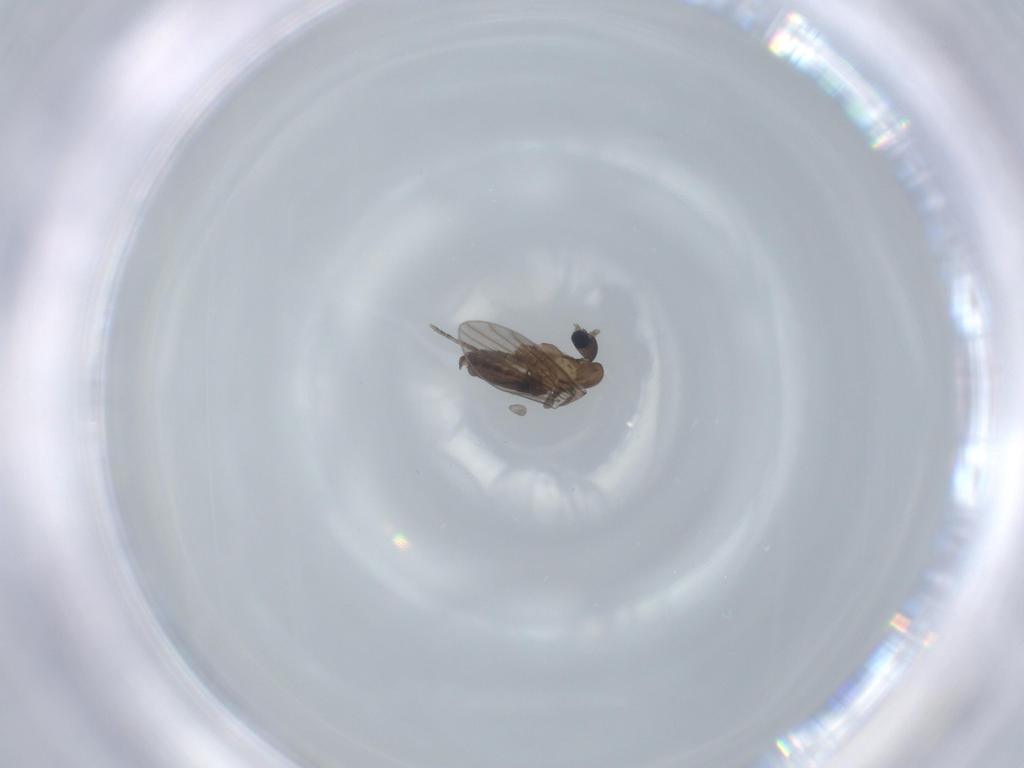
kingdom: Animalia
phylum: Arthropoda
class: Insecta
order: Diptera
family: Psychodidae
